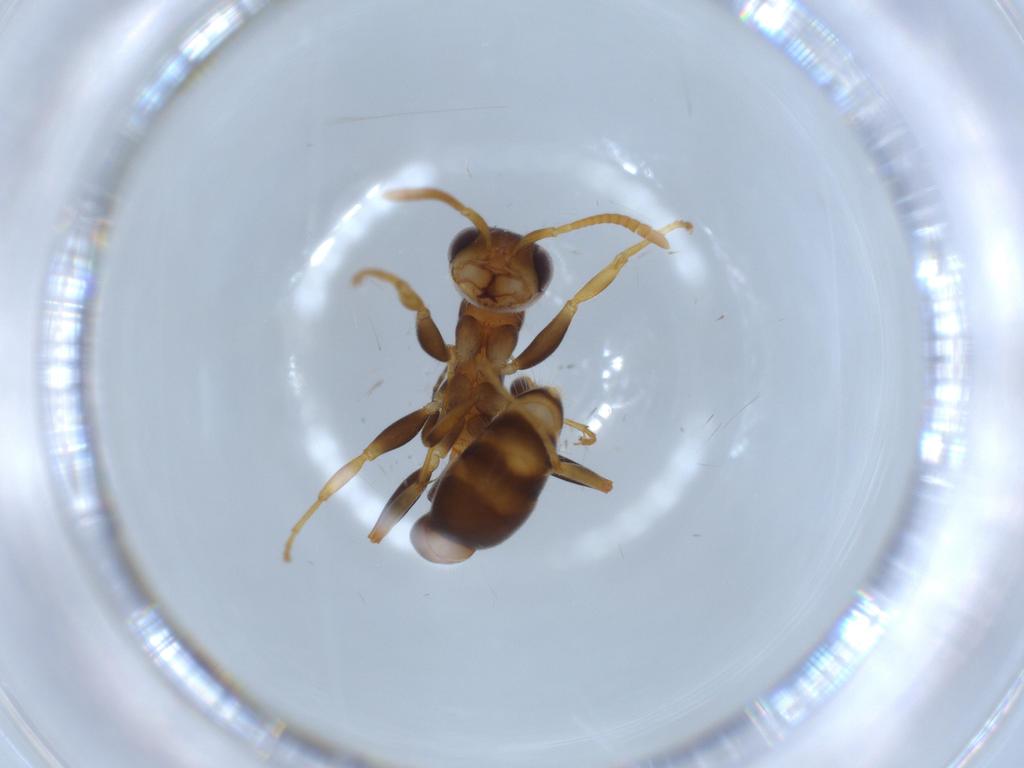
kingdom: Animalia
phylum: Arthropoda
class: Insecta
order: Hymenoptera
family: Formicidae
